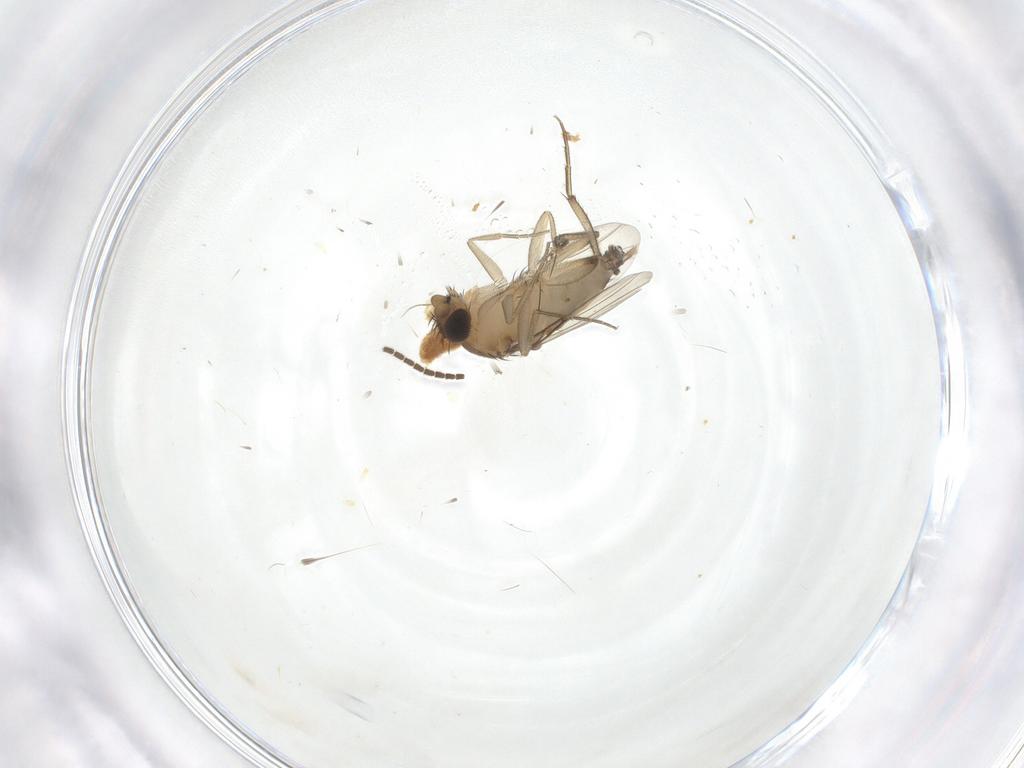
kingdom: Animalia
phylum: Arthropoda
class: Insecta
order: Diptera
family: Phoridae
